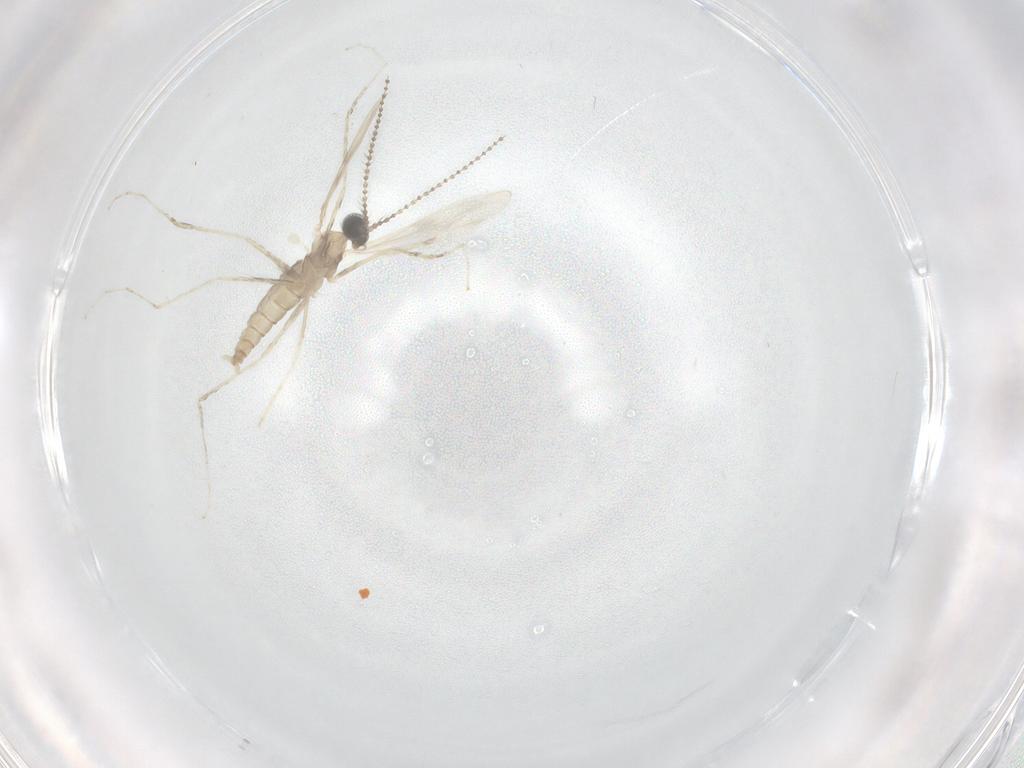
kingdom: Animalia
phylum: Arthropoda
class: Insecta
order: Diptera
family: Cecidomyiidae
